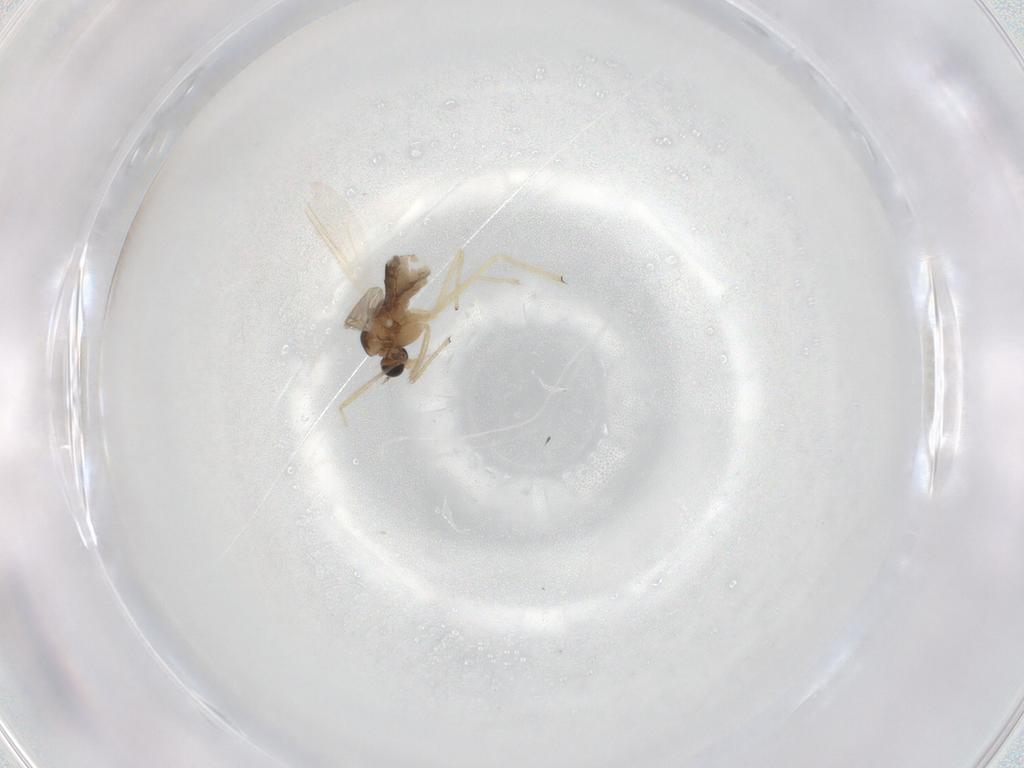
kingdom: Animalia
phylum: Arthropoda
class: Insecta
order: Diptera
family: Chironomidae
